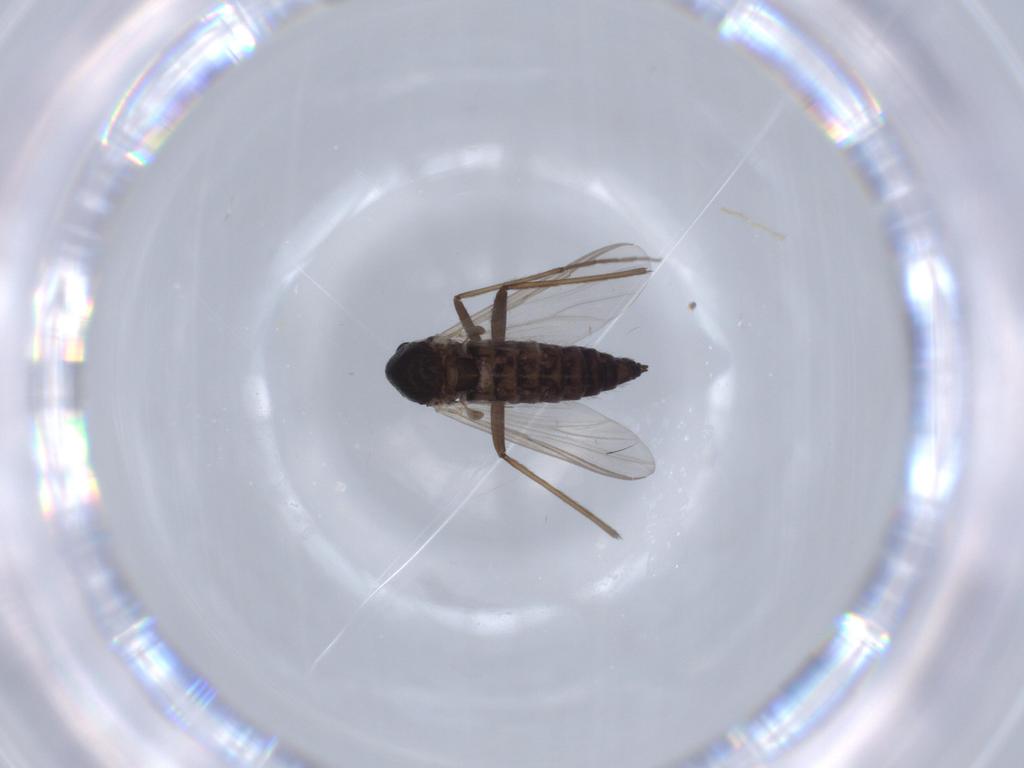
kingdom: Animalia
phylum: Arthropoda
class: Insecta
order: Diptera
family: Chironomidae
